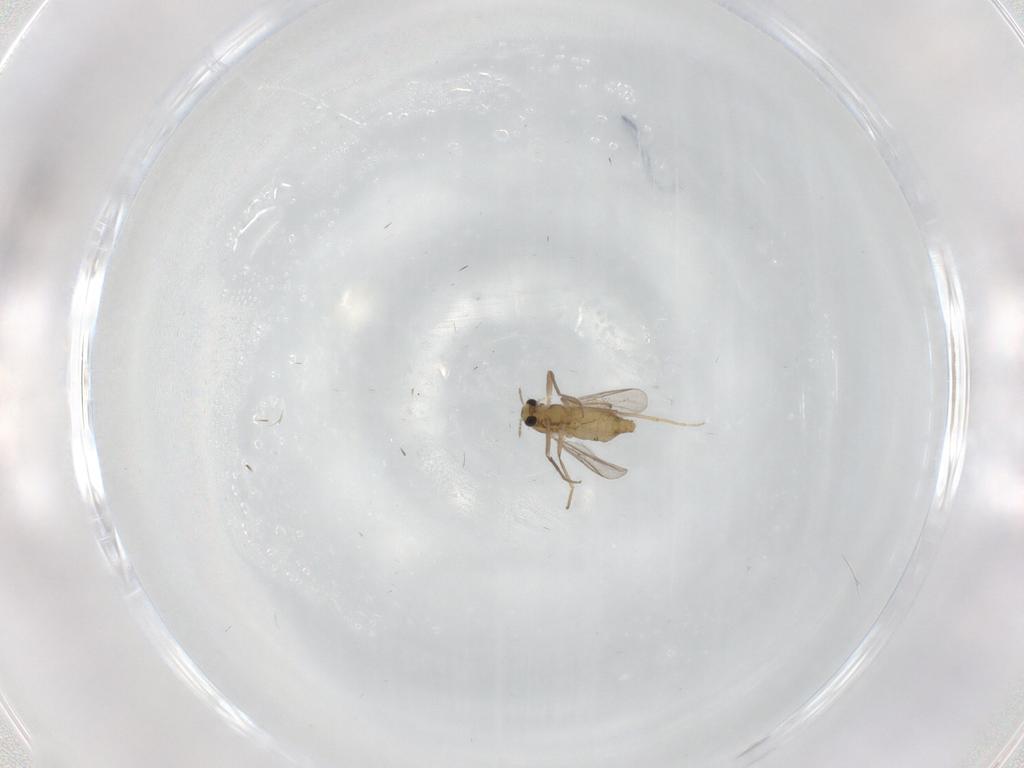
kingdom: Animalia
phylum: Arthropoda
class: Insecta
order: Diptera
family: Chironomidae
